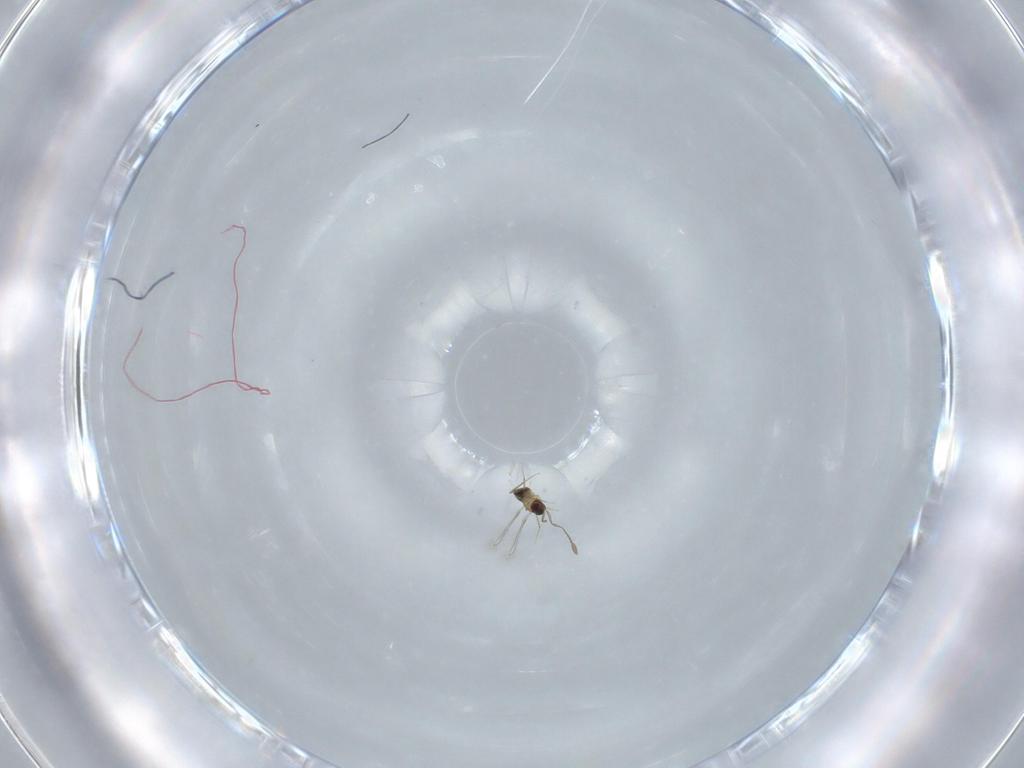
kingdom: Animalia
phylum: Arthropoda
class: Insecta
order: Hymenoptera
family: Mymaridae
